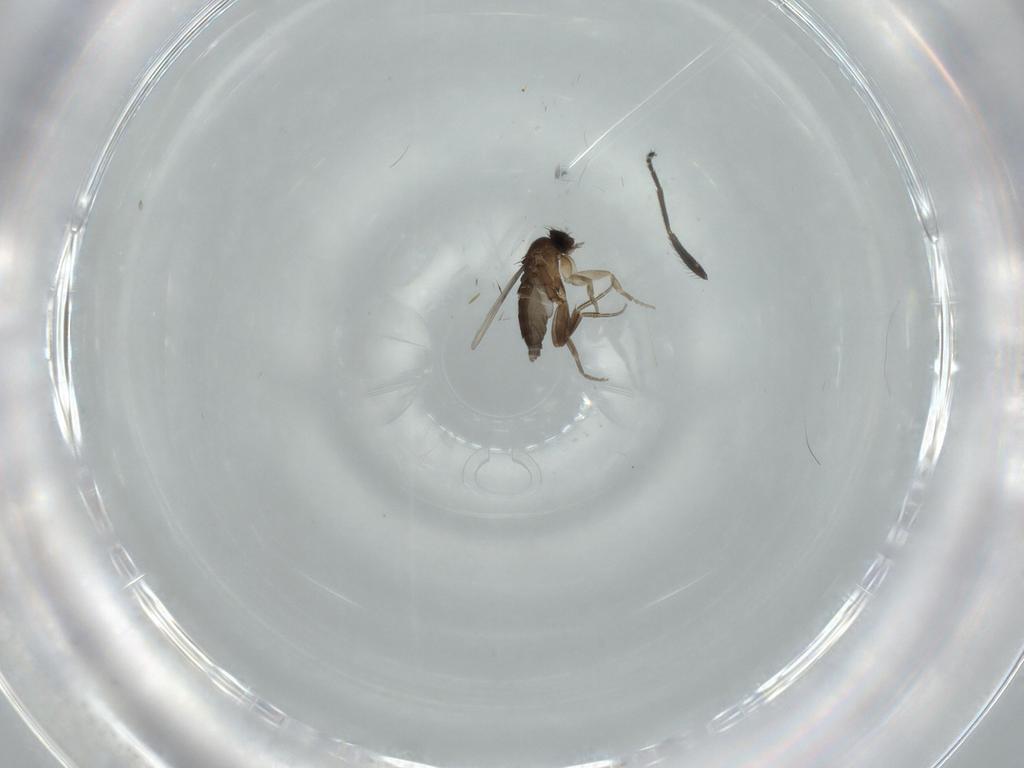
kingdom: Animalia
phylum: Arthropoda
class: Insecta
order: Diptera
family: Phoridae
